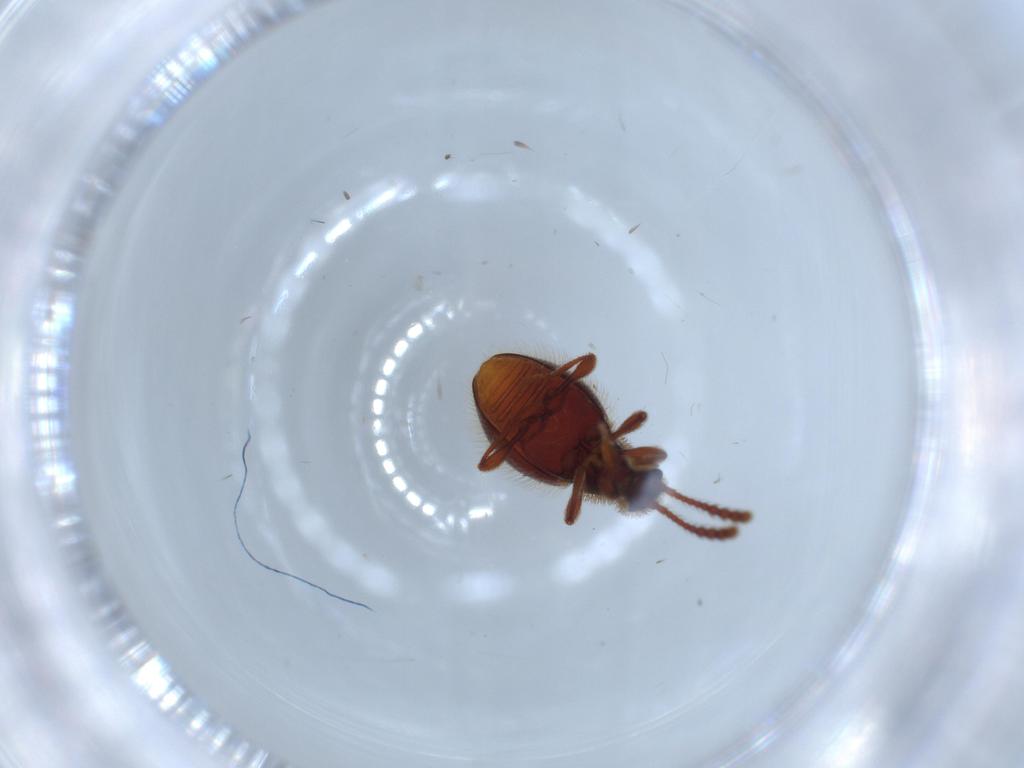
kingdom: Animalia
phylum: Arthropoda
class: Insecta
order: Coleoptera
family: Staphylinidae
